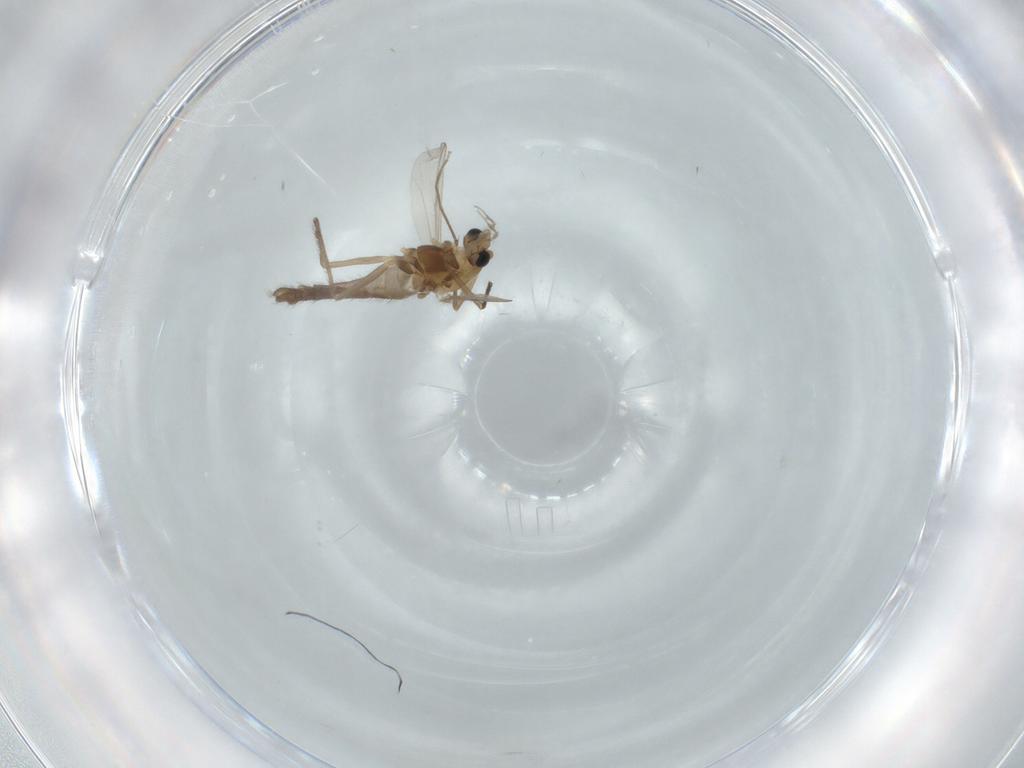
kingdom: Animalia
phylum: Arthropoda
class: Insecta
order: Diptera
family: Chironomidae
